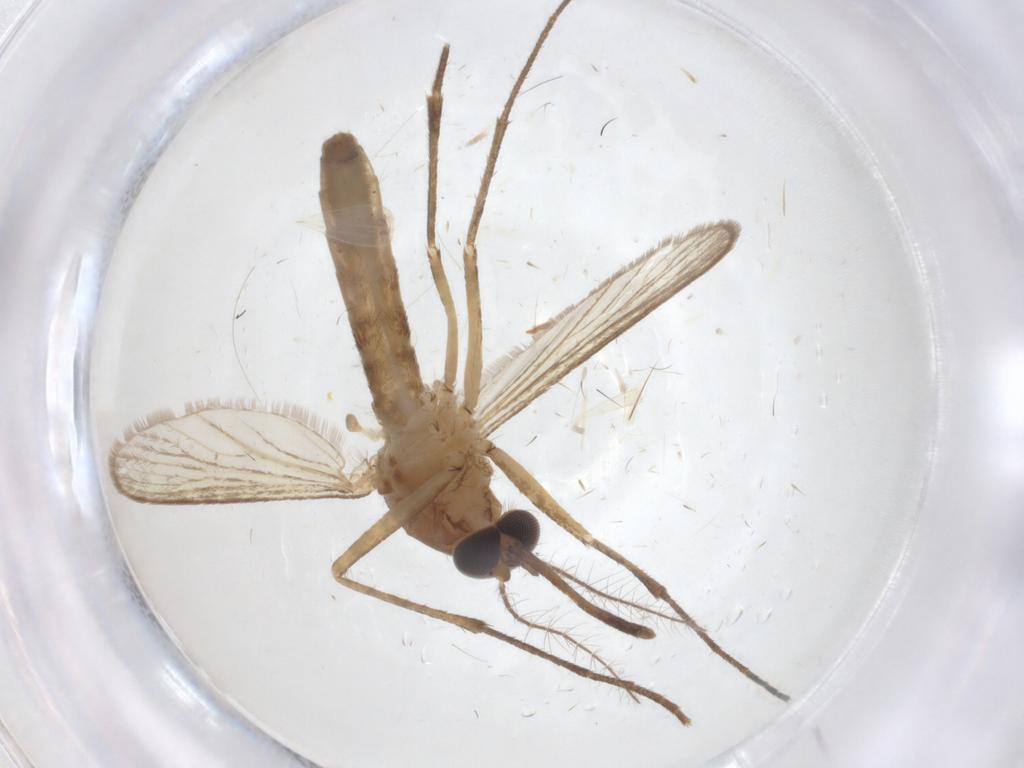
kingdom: Animalia
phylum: Arthropoda
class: Insecta
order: Diptera
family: Culicidae
